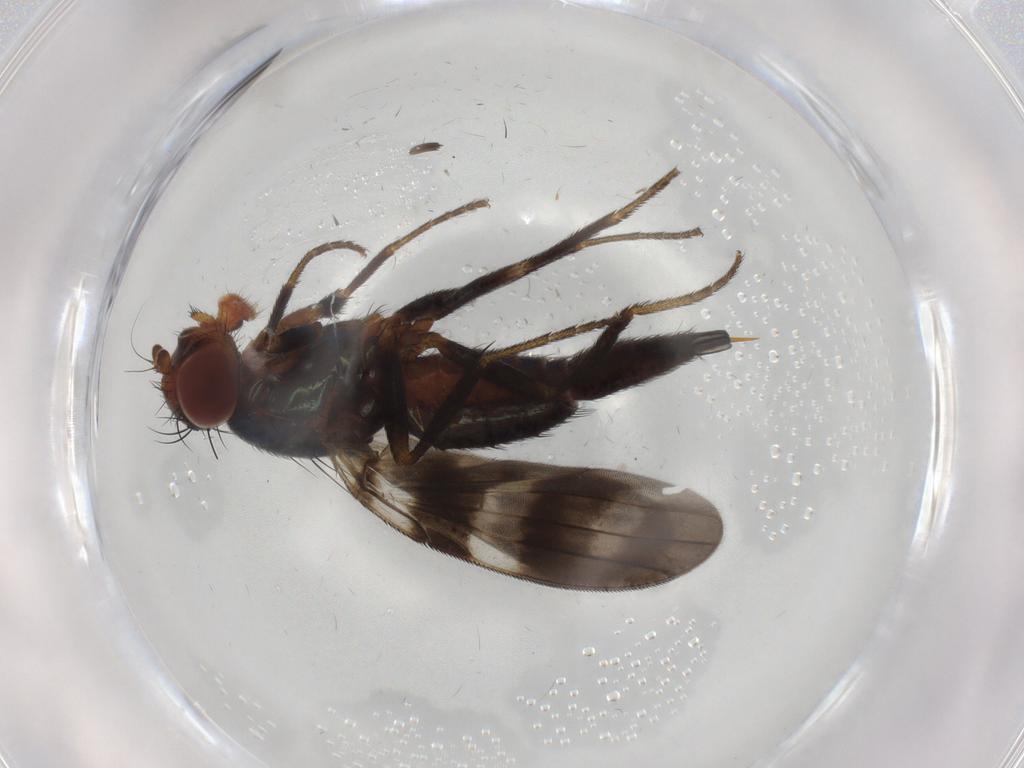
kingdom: Animalia
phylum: Arthropoda
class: Insecta
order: Diptera
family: Ulidiidae
